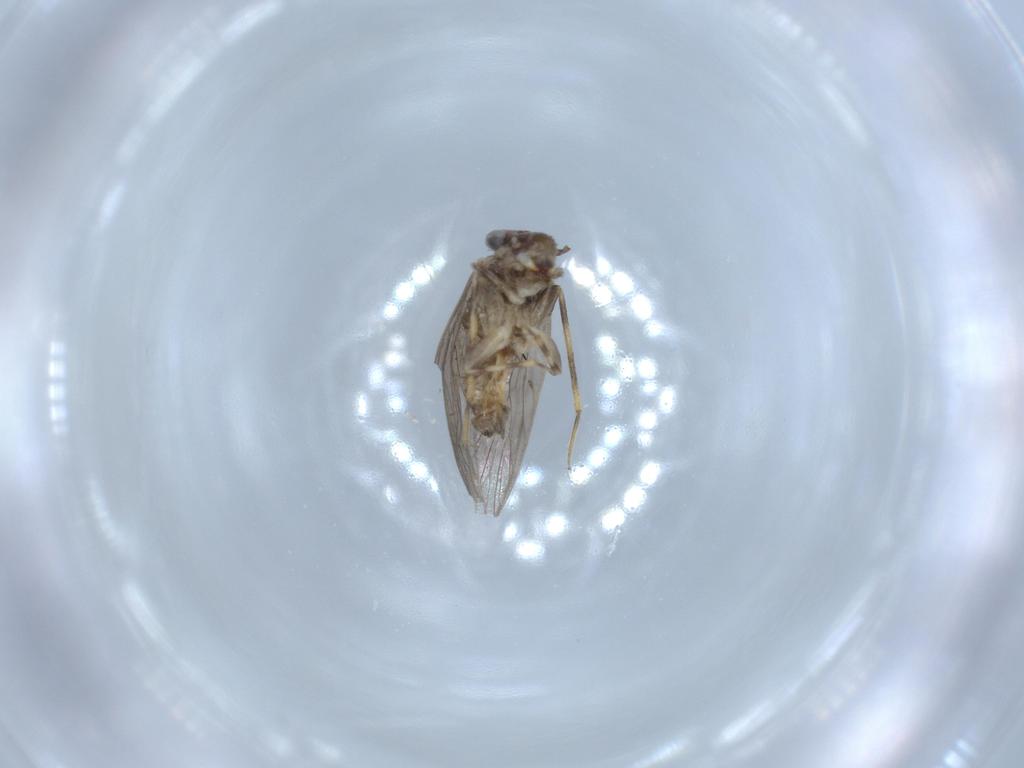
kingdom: Animalia
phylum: Arthropoda
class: Insecta
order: Psocodea
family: Lepidopsocidae
